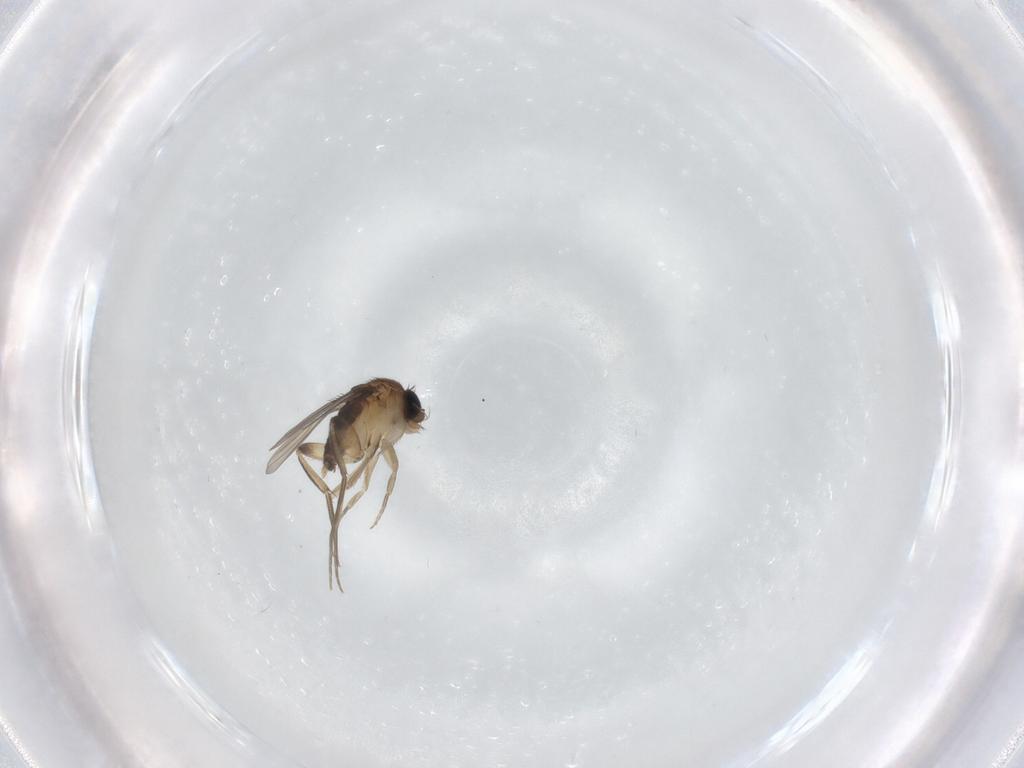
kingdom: Animalia
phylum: Arthropoda
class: Insecta
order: Diptera
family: Phoridae
